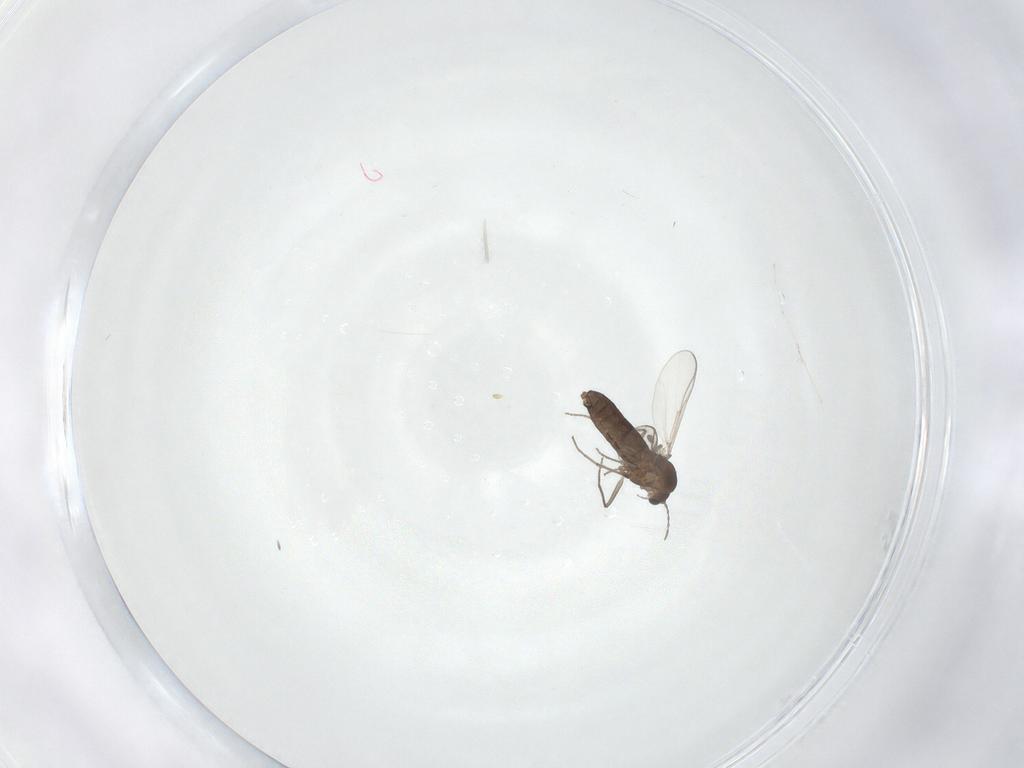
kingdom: Animalia
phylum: Arthropoda
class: Insecta
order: Diptera
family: Chironomidae
